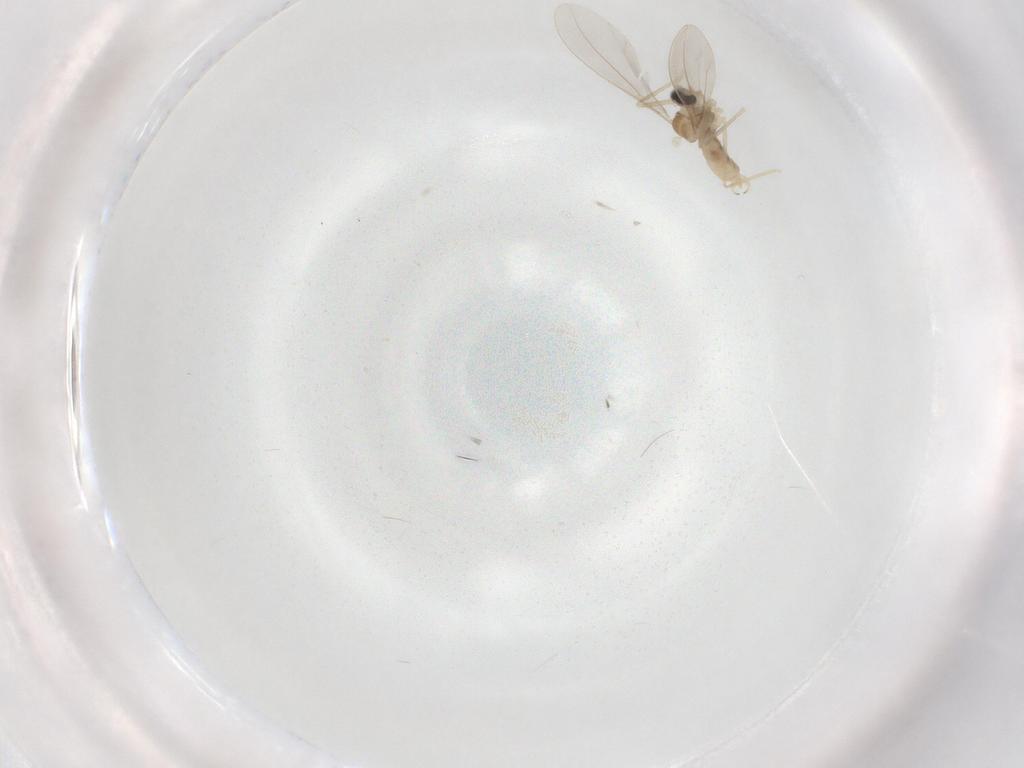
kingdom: Animalia
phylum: Arthropoda
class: Insecta
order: Diptera
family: Cecidomyiidae
